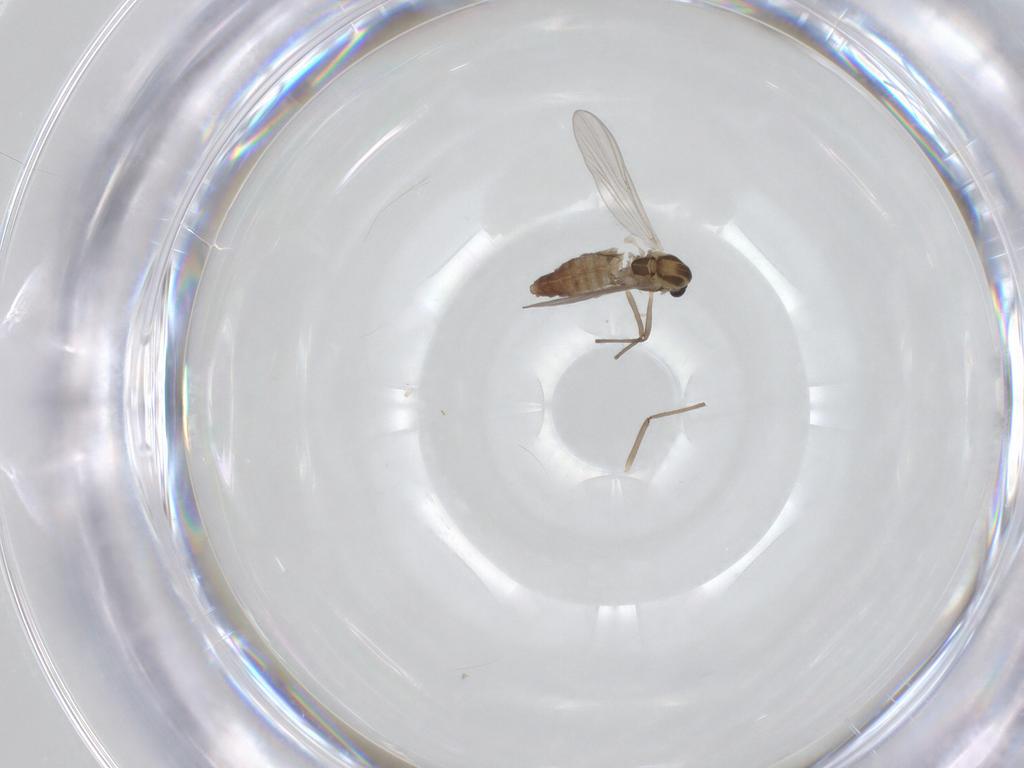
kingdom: Animalia
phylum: Arthropoda
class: Insecta
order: Diptera
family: Chironomidae
